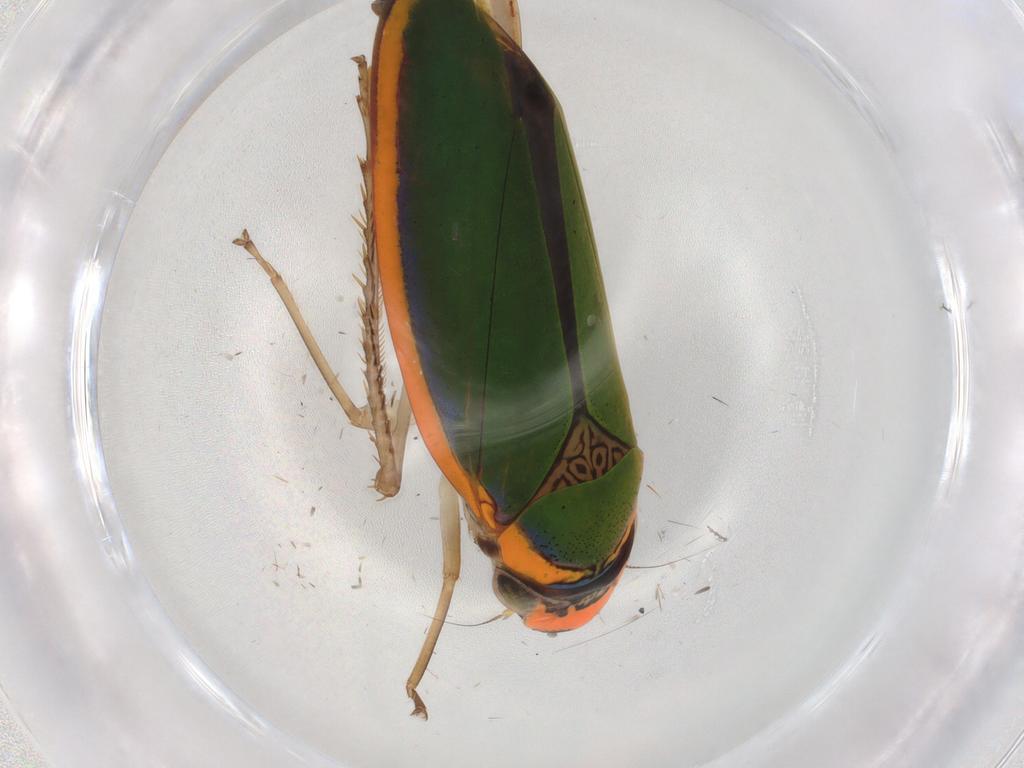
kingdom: Animalia
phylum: Arthropoda
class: Insecta
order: Hemiptera
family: Cicadellidae
